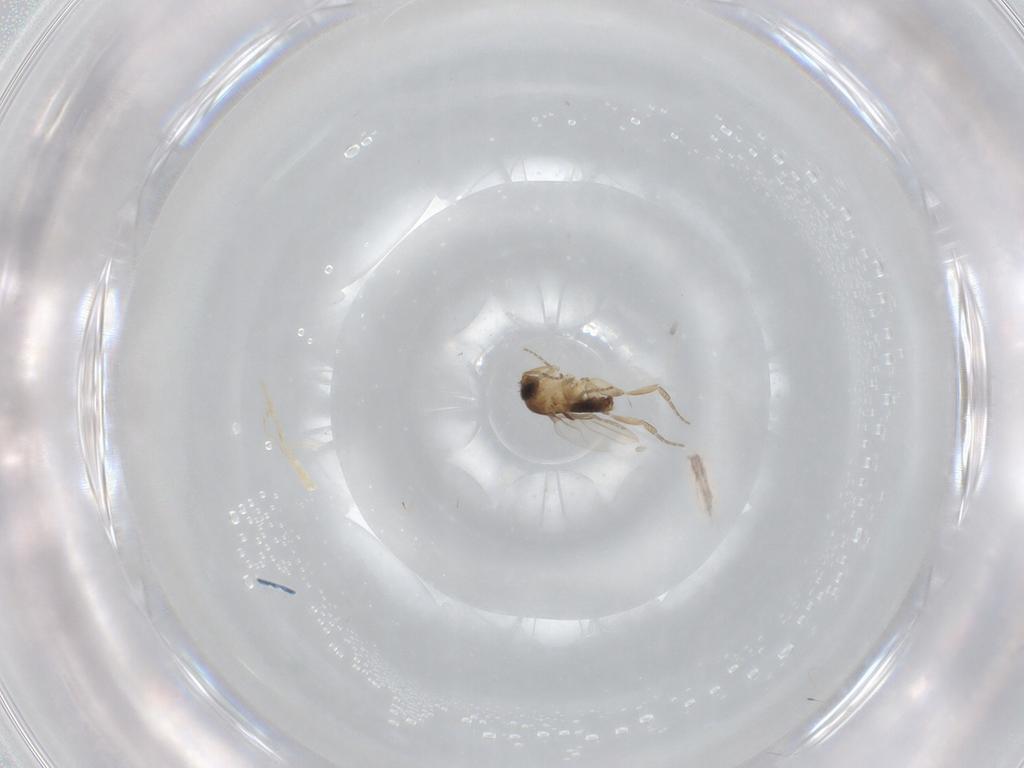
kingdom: Animalia
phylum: Arthropoda
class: Insecta
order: Diptera
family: Phoridae
